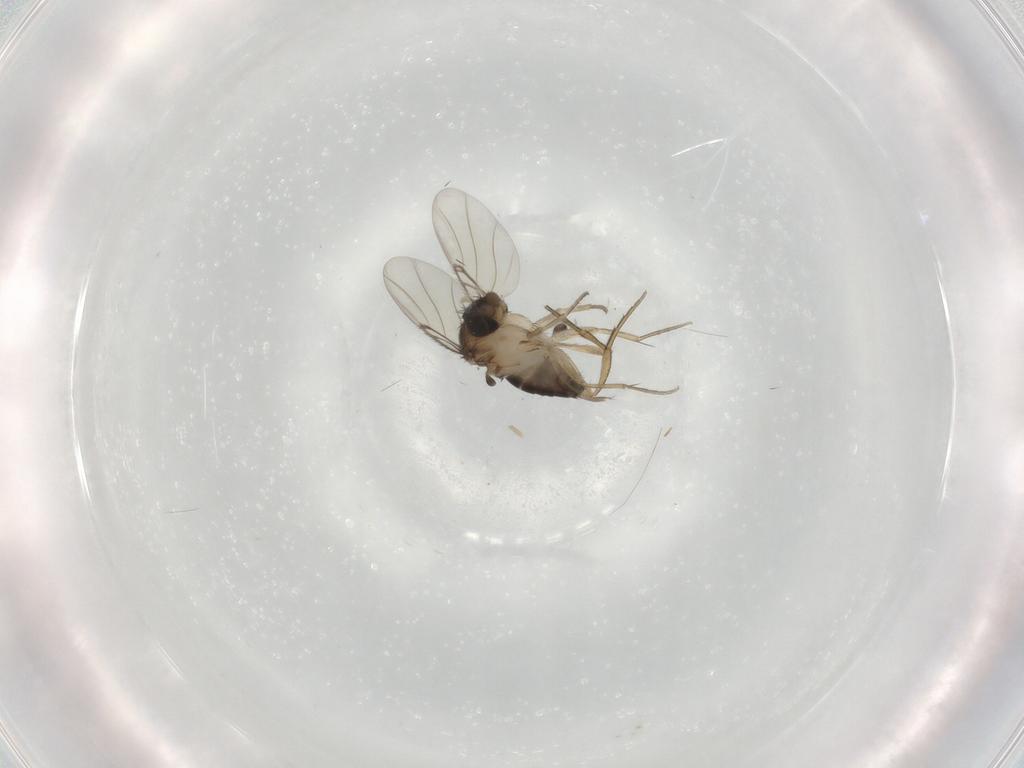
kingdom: Animalia
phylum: Arthropoda
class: Insecta
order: Diptera
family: Phoridae
